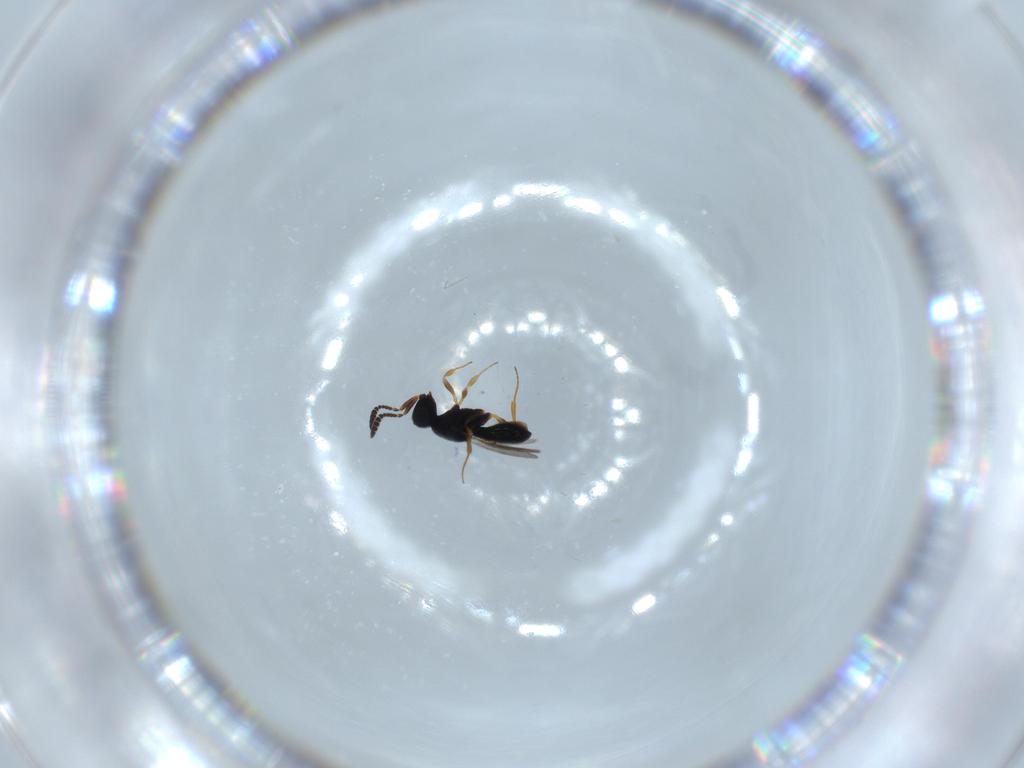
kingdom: Animalia
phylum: Arthropoda
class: Insecta
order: Hymenoptera
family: Scelionidae
